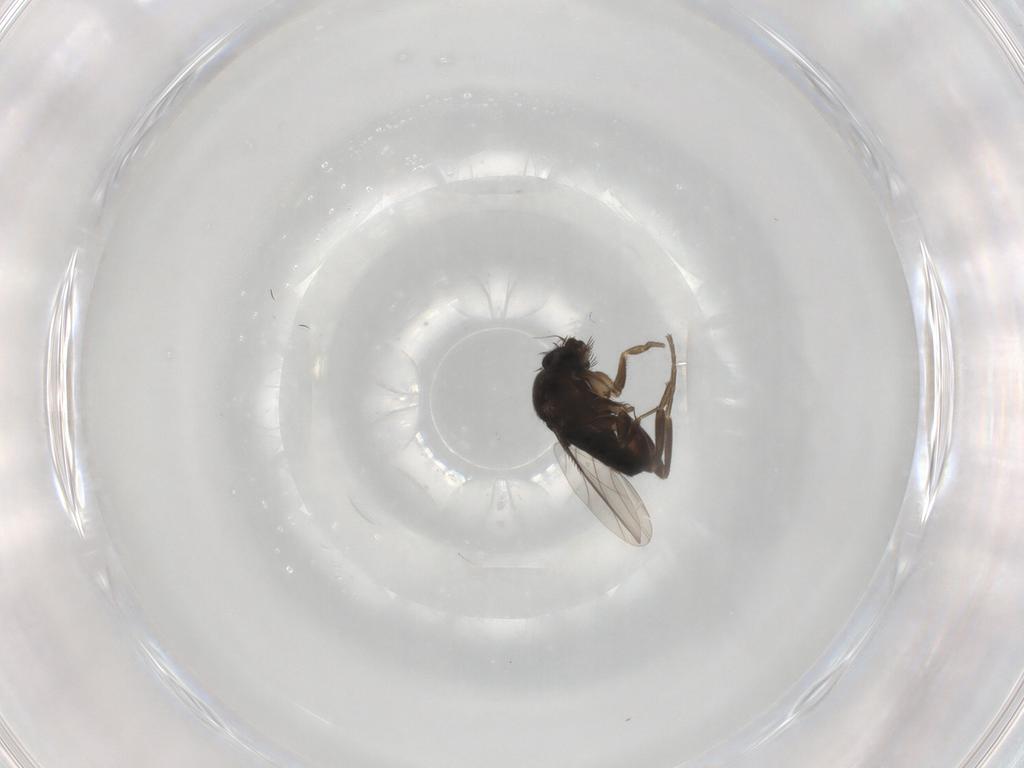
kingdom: Animalia
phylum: Arthropoda
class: Insecta
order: Diptera
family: Phoridae
